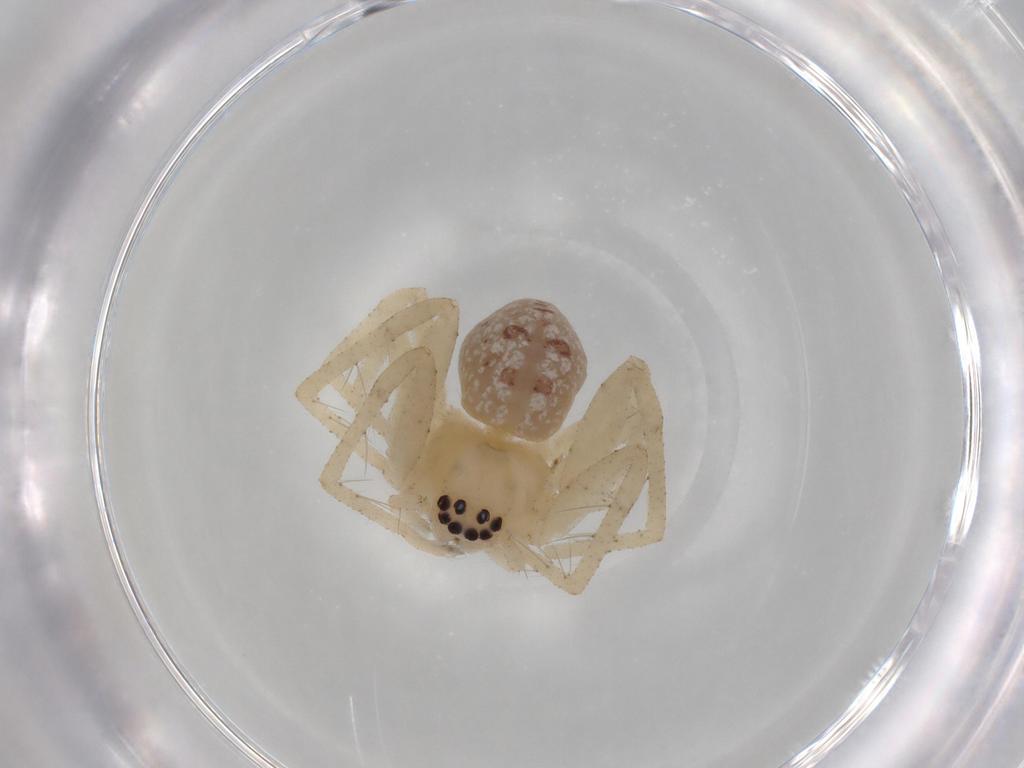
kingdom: Animalia
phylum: Arthropoda
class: Arachnida
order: Araneae
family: Sparassidae
